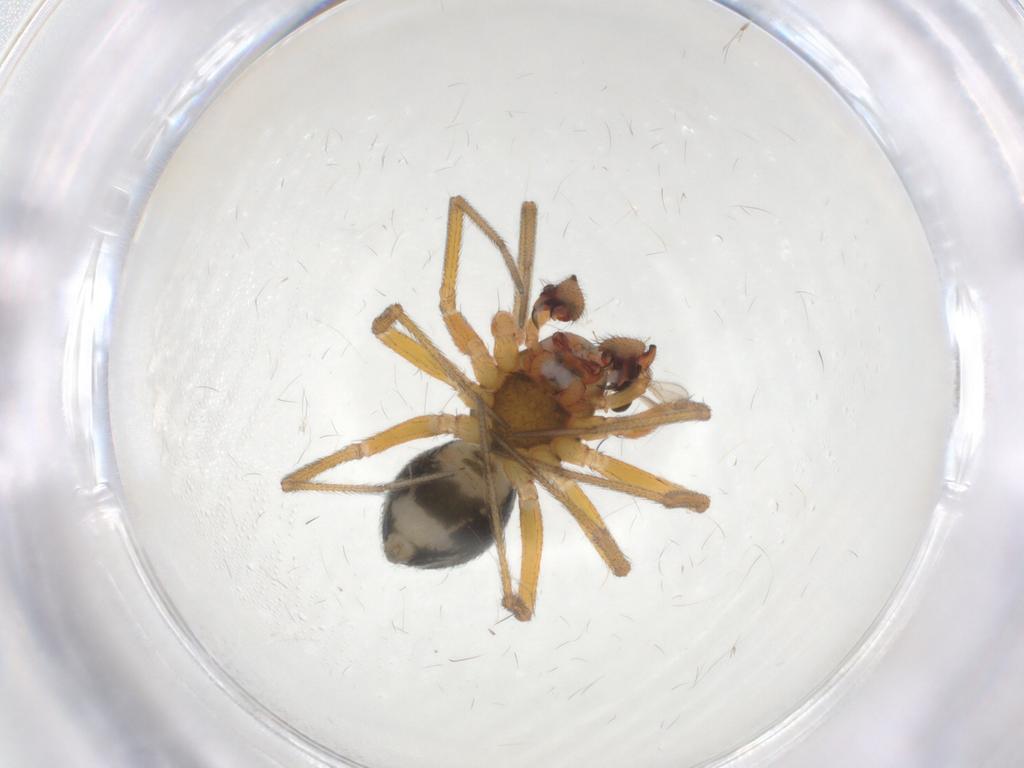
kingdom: Animalia
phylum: Arthropoda
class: Arachnida
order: Araneae
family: Linyphiidae
